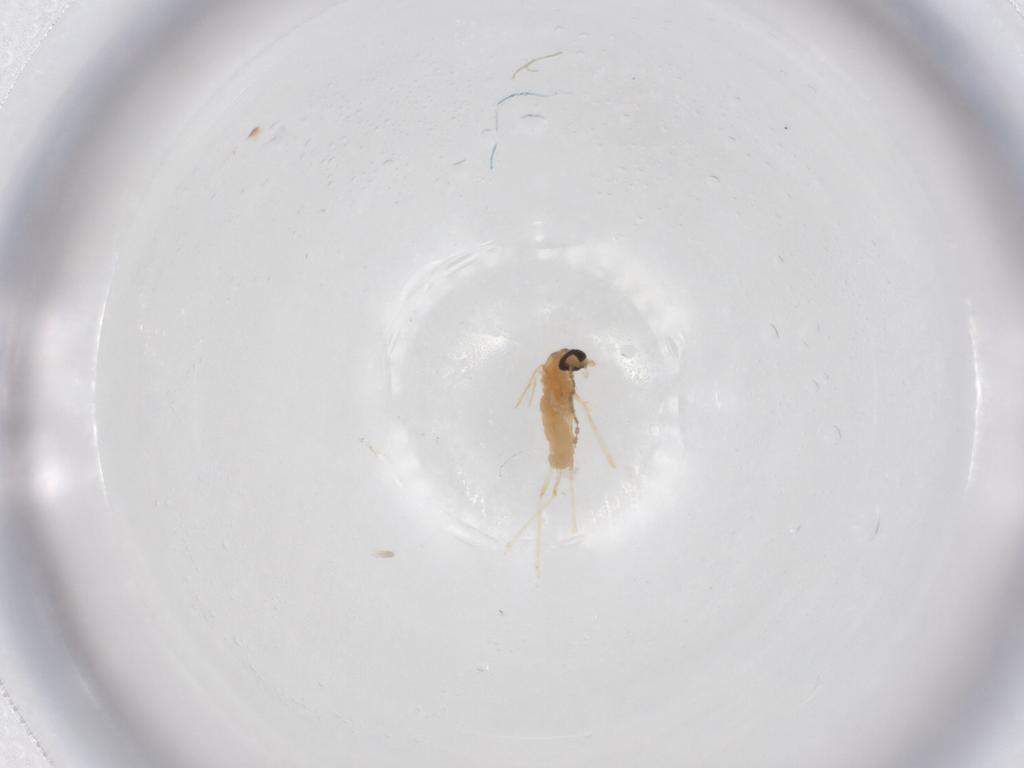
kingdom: Animalia
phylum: Arthropoda
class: Insecta
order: Diptera
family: Cecidomyiidae
